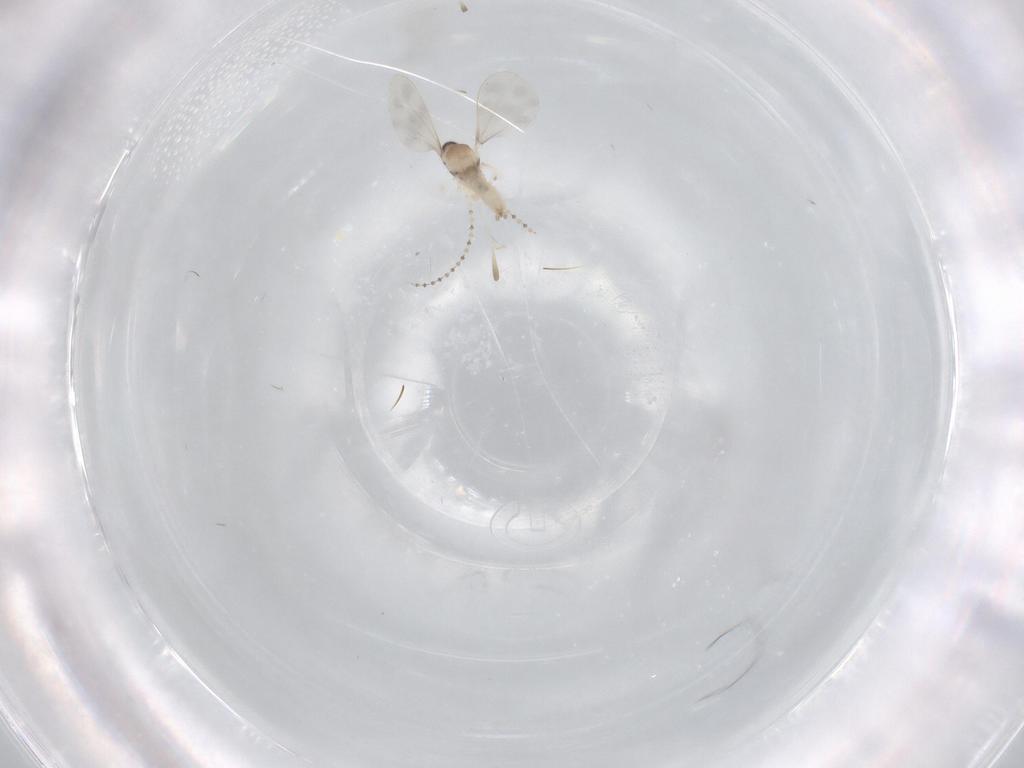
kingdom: Animalia
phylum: Arthropoda
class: Insecta
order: Diptera
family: Cecidomyiidae
